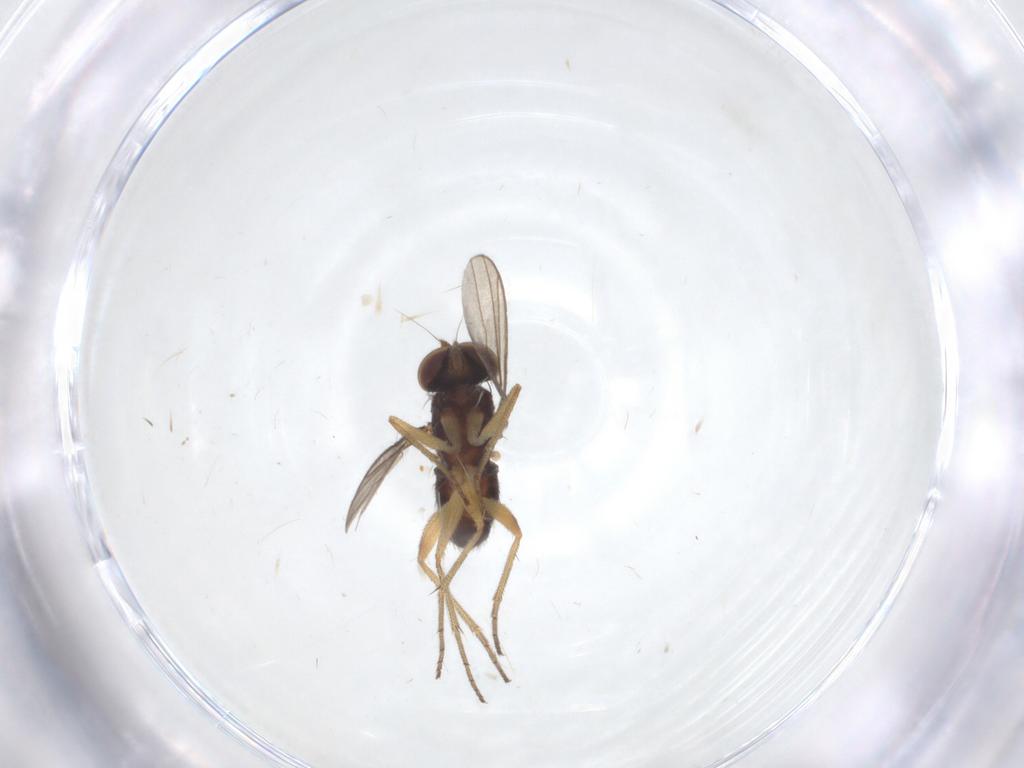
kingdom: Animalia
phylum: Arthropoda
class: Insecta
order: Diptera
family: Dolichopodidae
